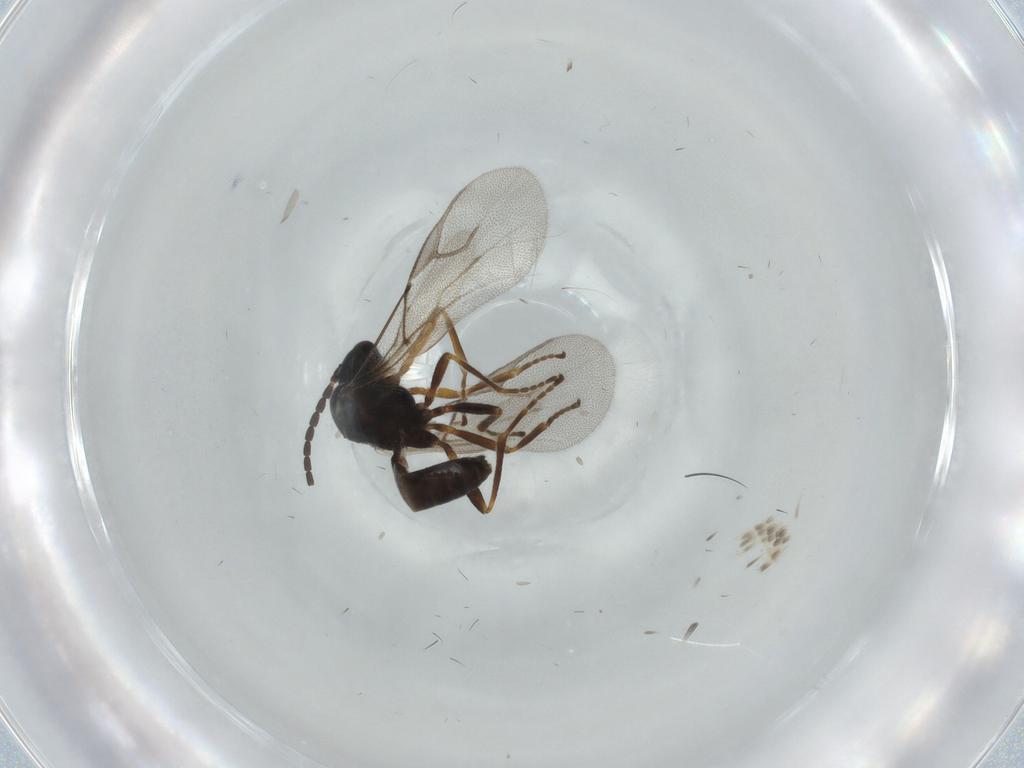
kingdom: Animalia
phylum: Arthropoda
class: Insecta
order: Hymenoptera
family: Braconidae
